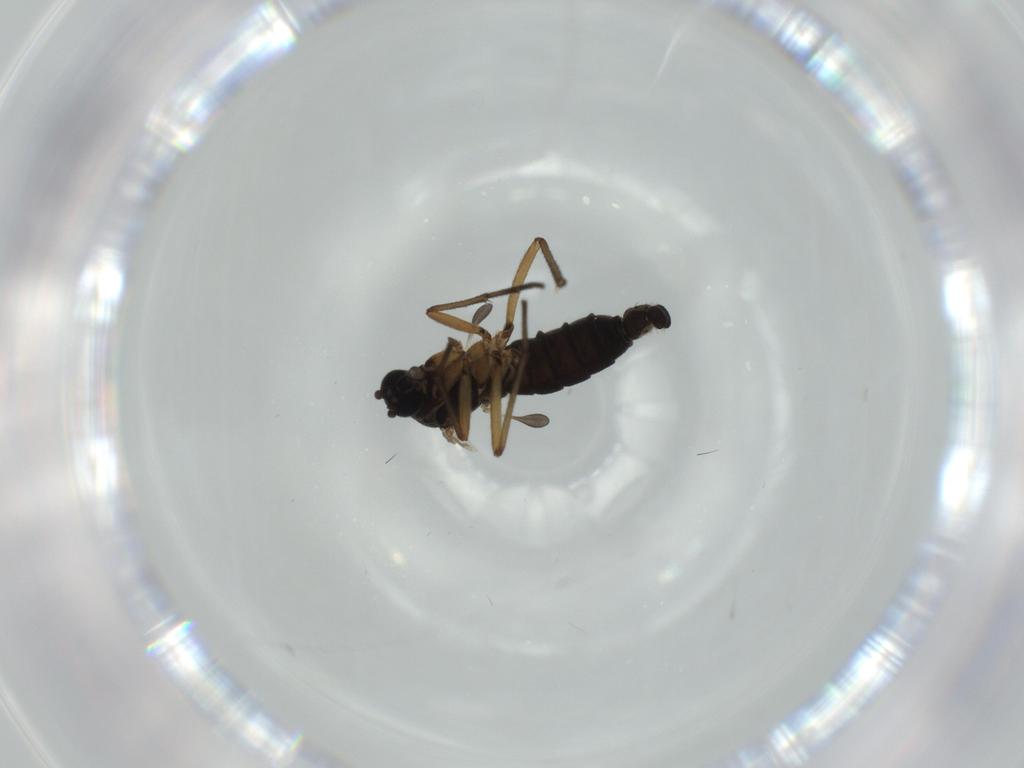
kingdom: Animalia
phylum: Arthropoda
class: Insecta
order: Diptera
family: Sciaridae
